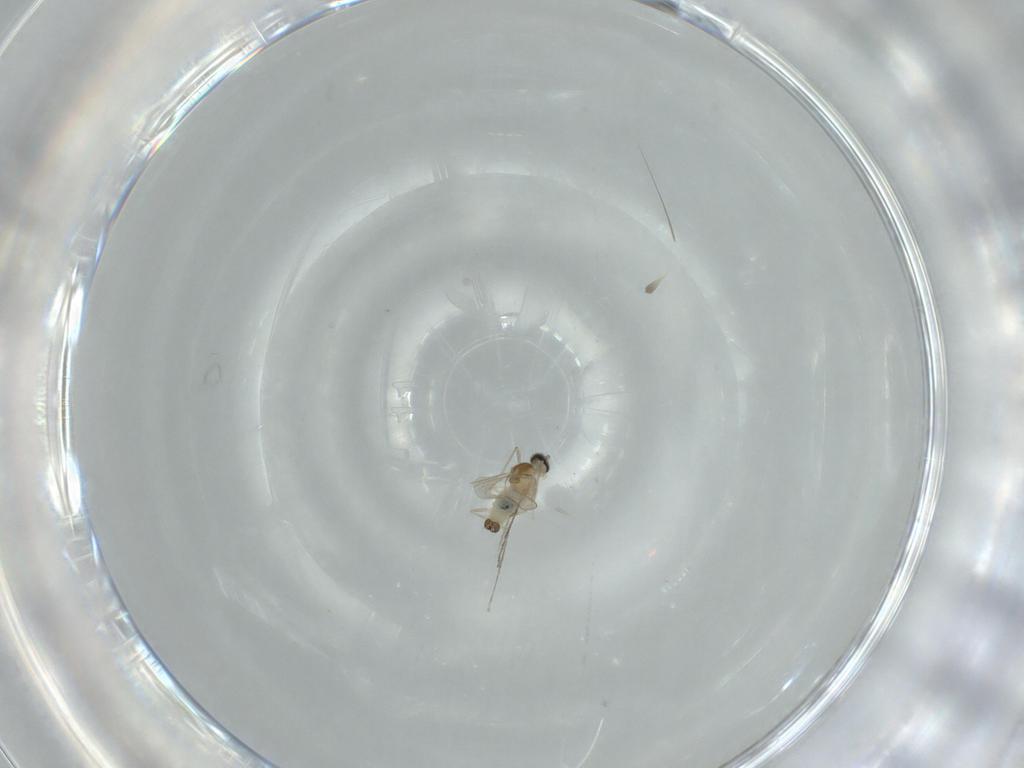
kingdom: Animalia
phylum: Arthropoda
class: Insecta
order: Diptera
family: Cecidomyiidae
